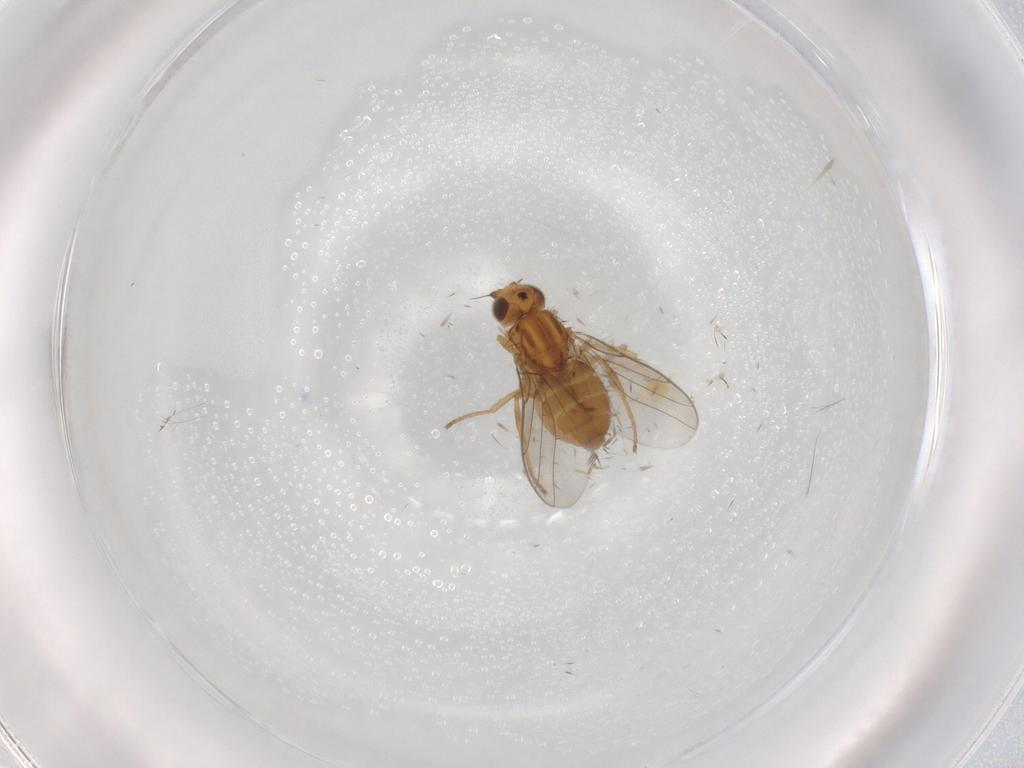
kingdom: Animalia
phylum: Arthropoda
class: Insecta
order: Diptera
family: Chloropidae
